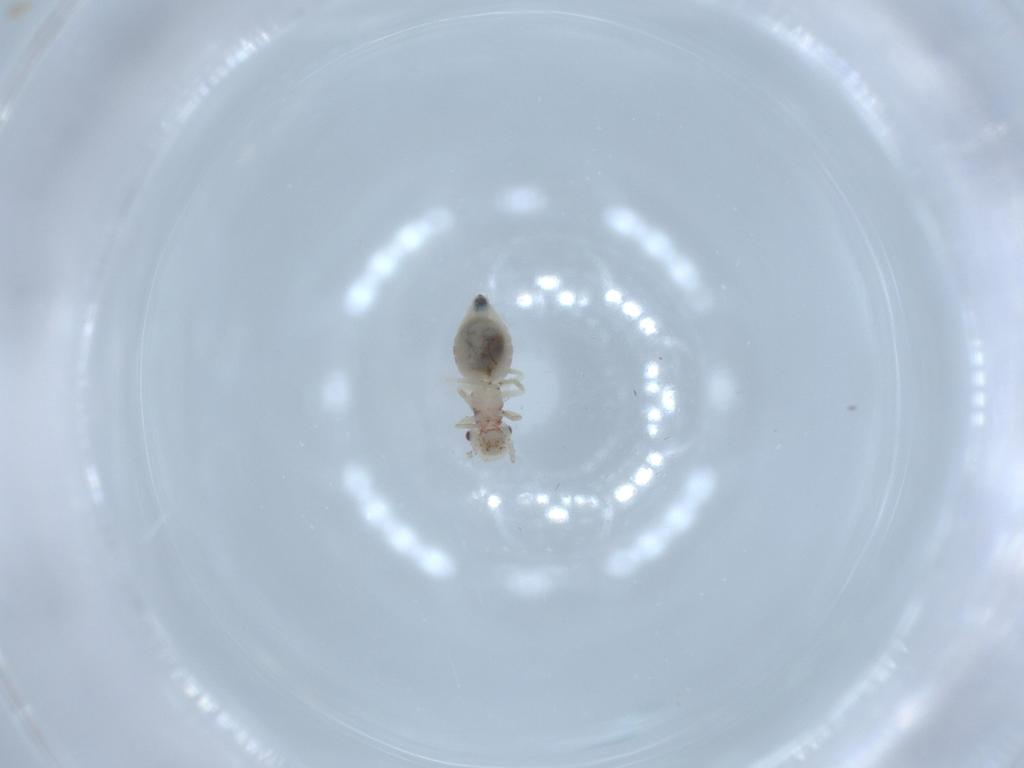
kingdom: Animalia
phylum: Arthropoda
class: Insecta
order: Psocodea
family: Caeciliusidae
